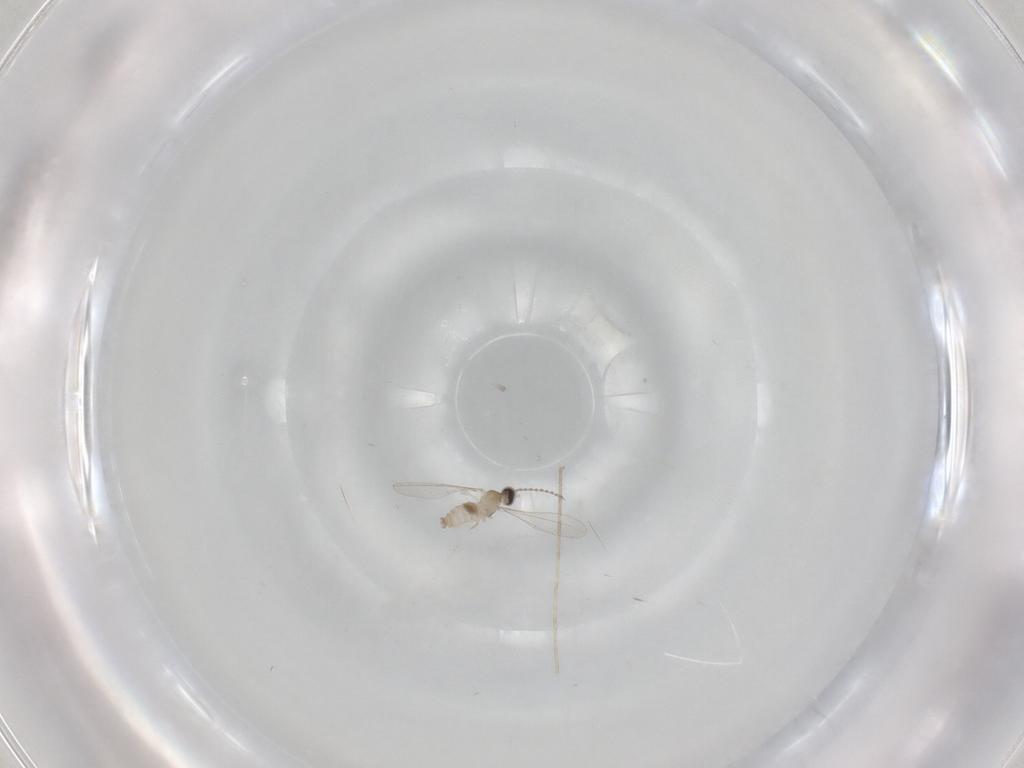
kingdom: Animalia
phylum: Arthropoda
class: Insecta
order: Diptera
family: Cecidomyiidae
